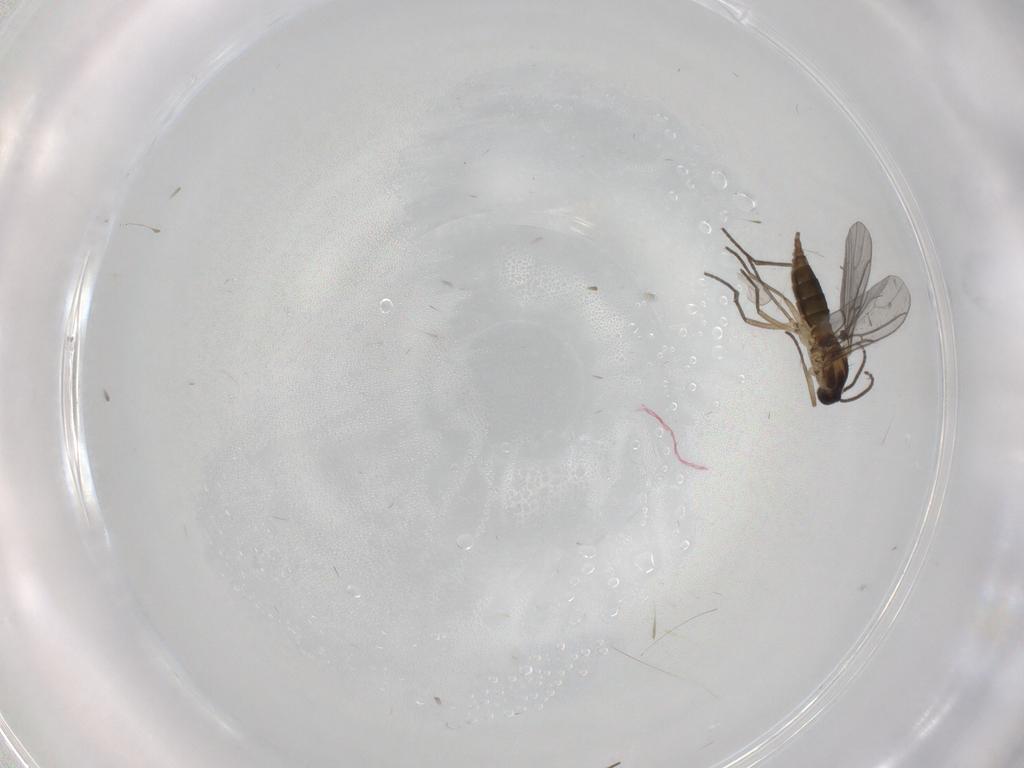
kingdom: Animalia
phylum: Arthropoda
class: Insecta
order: Diptera
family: Sciaridae
